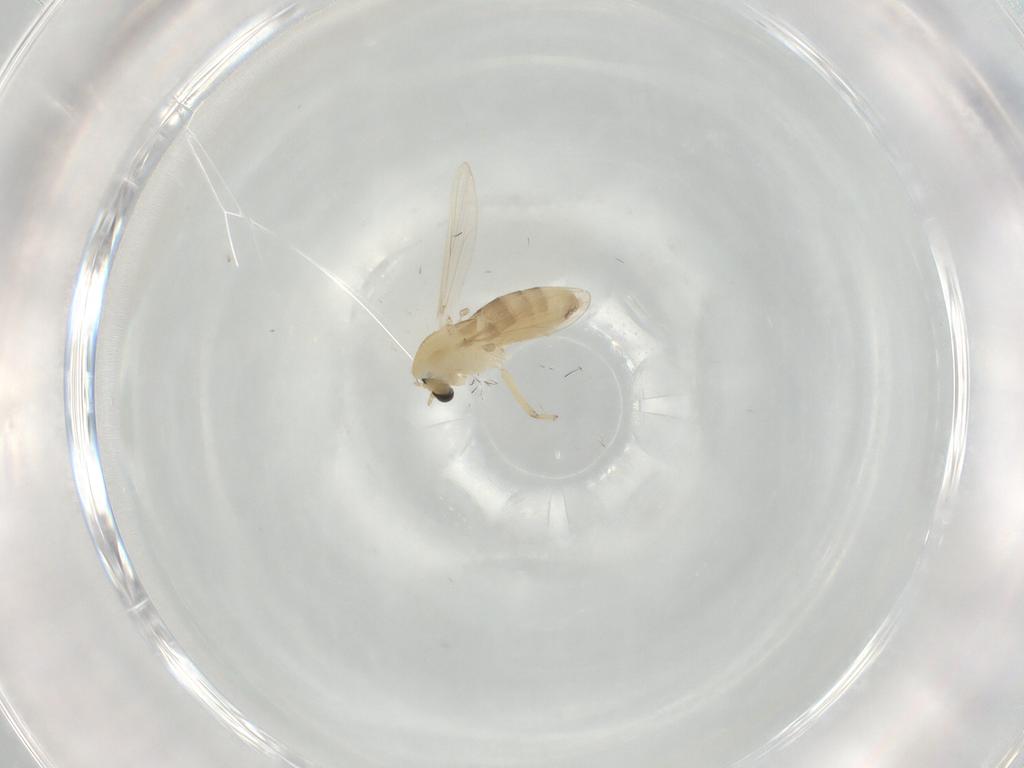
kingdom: Animalia
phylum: Arthropoda
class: Insecta
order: Diptera
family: Chironomidae
